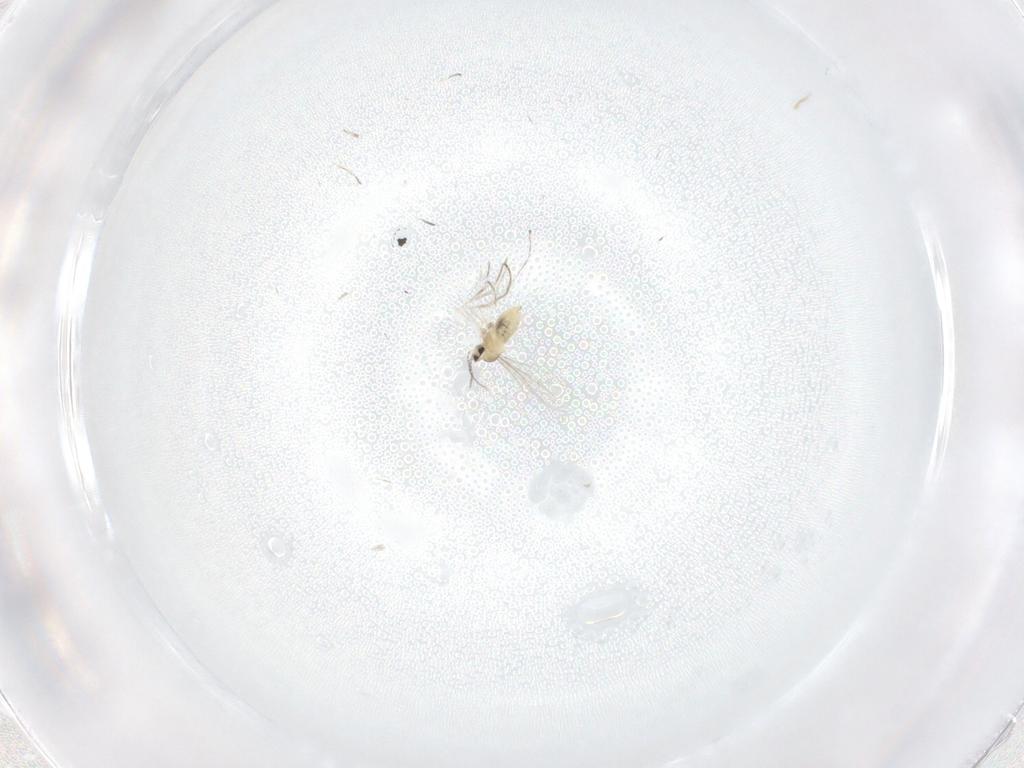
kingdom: Animalia
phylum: Arthropoda
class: Insecta
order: Diptera
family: Cecidomyiidae
